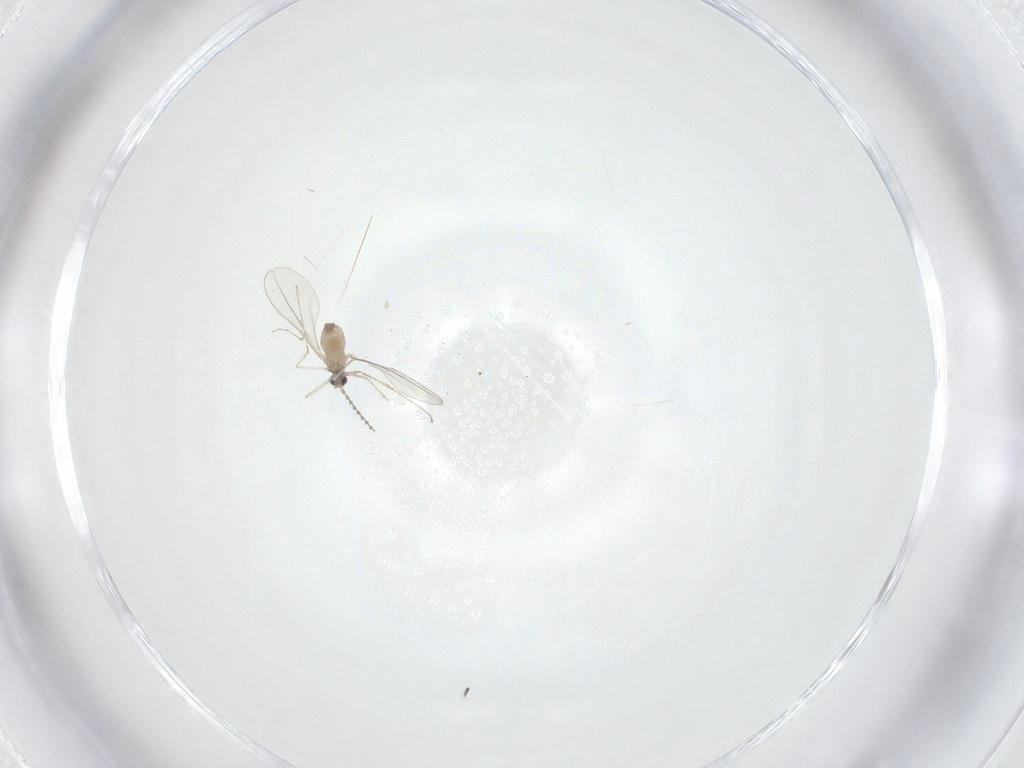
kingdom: Animalia
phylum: Arthropoda
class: Insecta
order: Diptera
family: Cecidomyiidae
